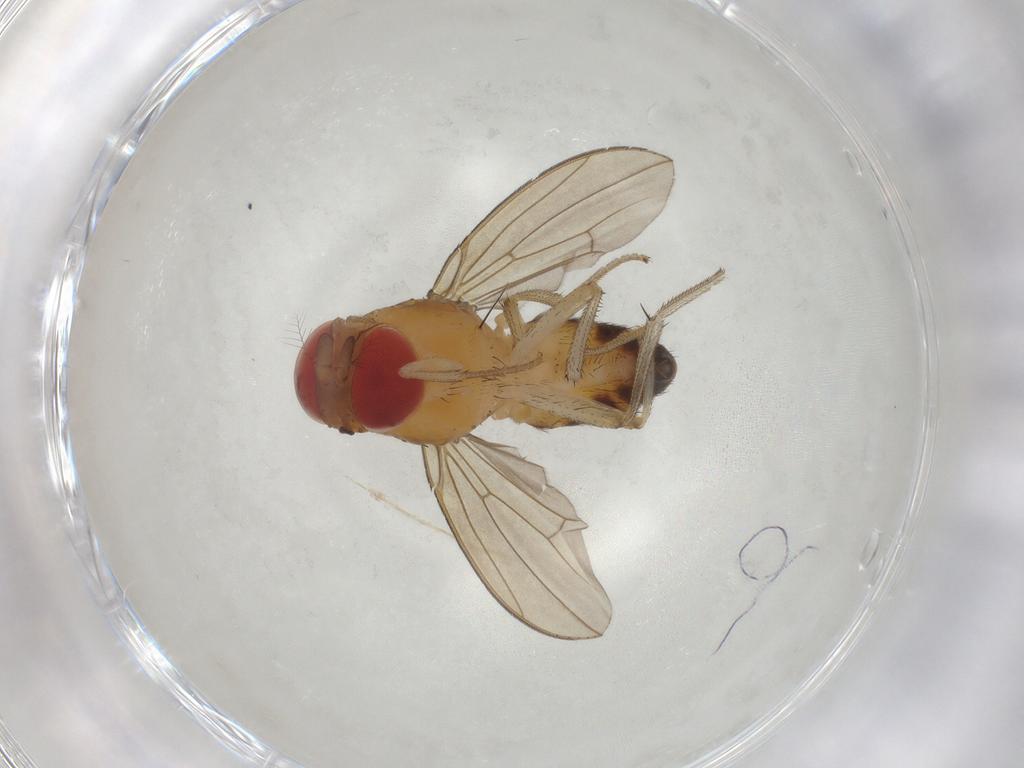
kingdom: Animalia
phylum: Arthropoda
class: Insecta
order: Diptera
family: Drosophilidae
